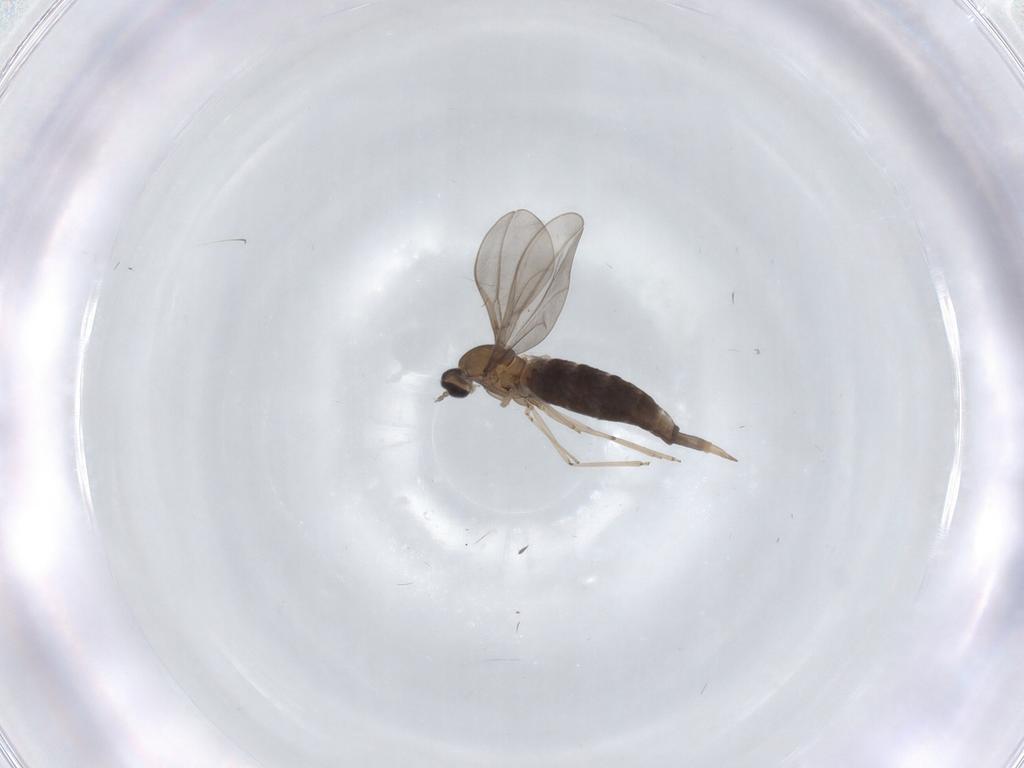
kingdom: Animalia
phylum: Arthropoda
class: Insecta
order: Diptera
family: Cecidomyiidae
